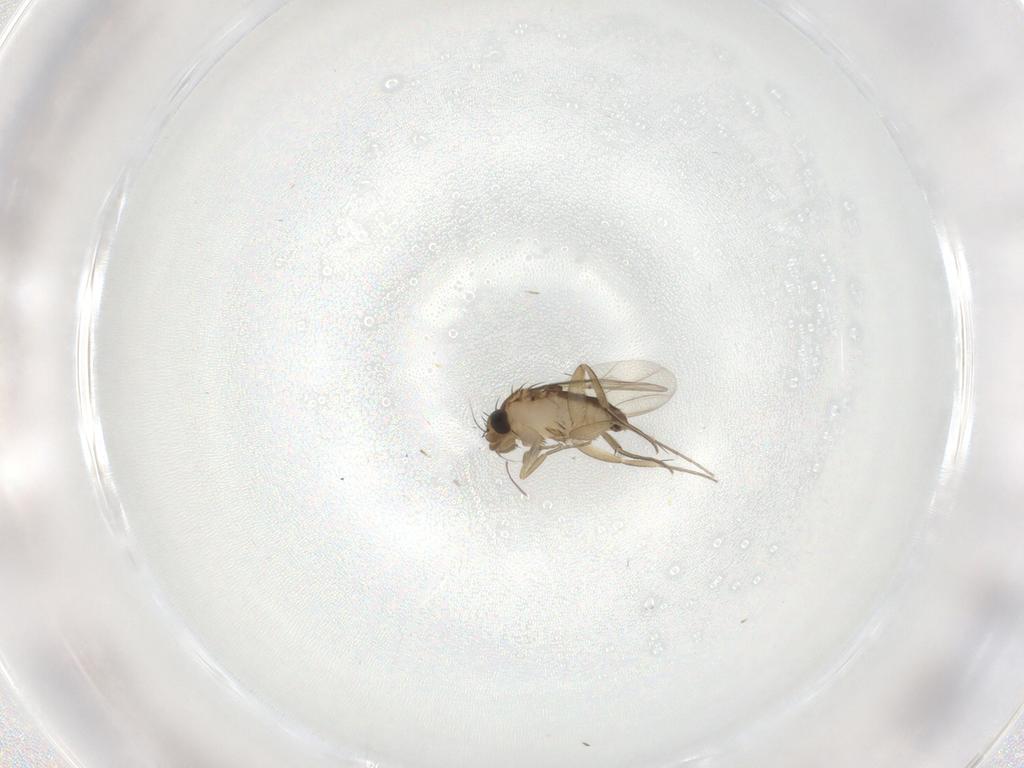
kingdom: Animalia
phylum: Arthropoda
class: Insecta
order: Diptera
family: Phoridae
